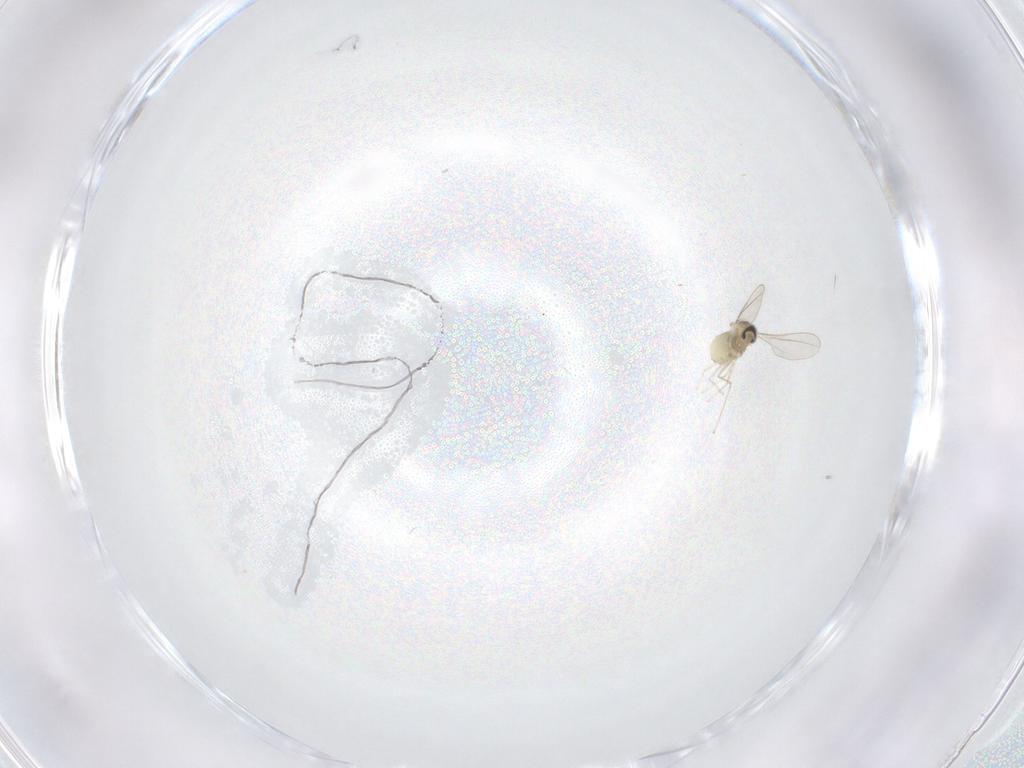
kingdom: Animalia
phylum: Arthropoda
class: Insecta
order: Diptera
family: Cecidomyiidae
